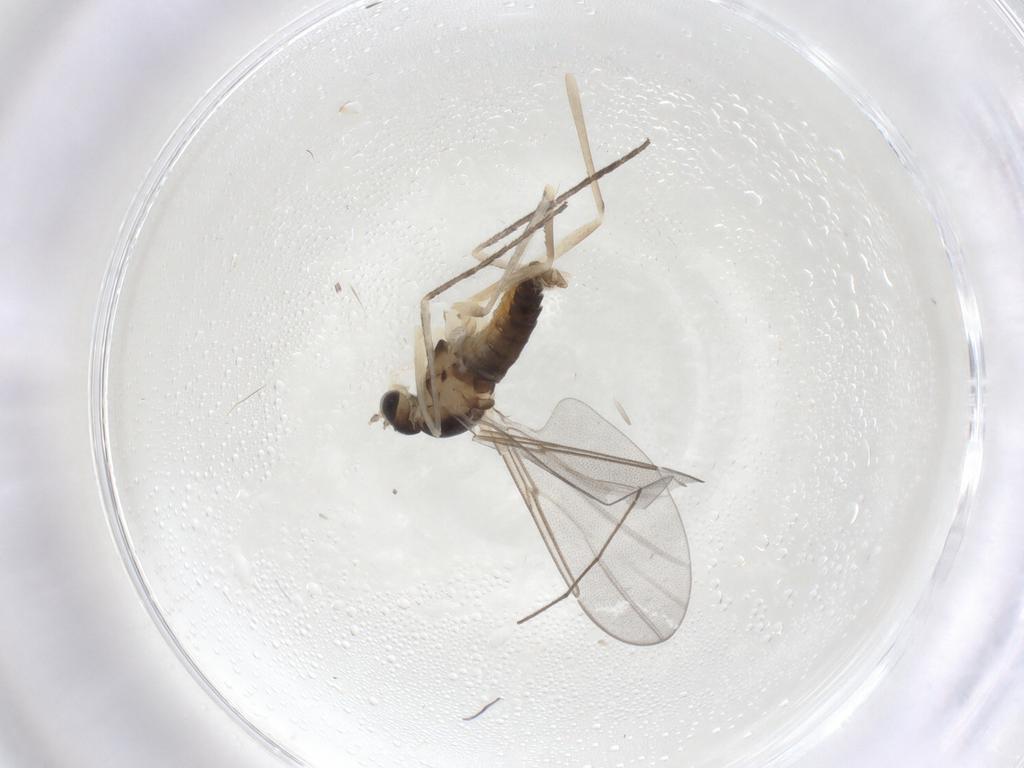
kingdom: Animalia
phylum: Arthropoda
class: Insecta
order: Diptera
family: Cecidomyiidae
